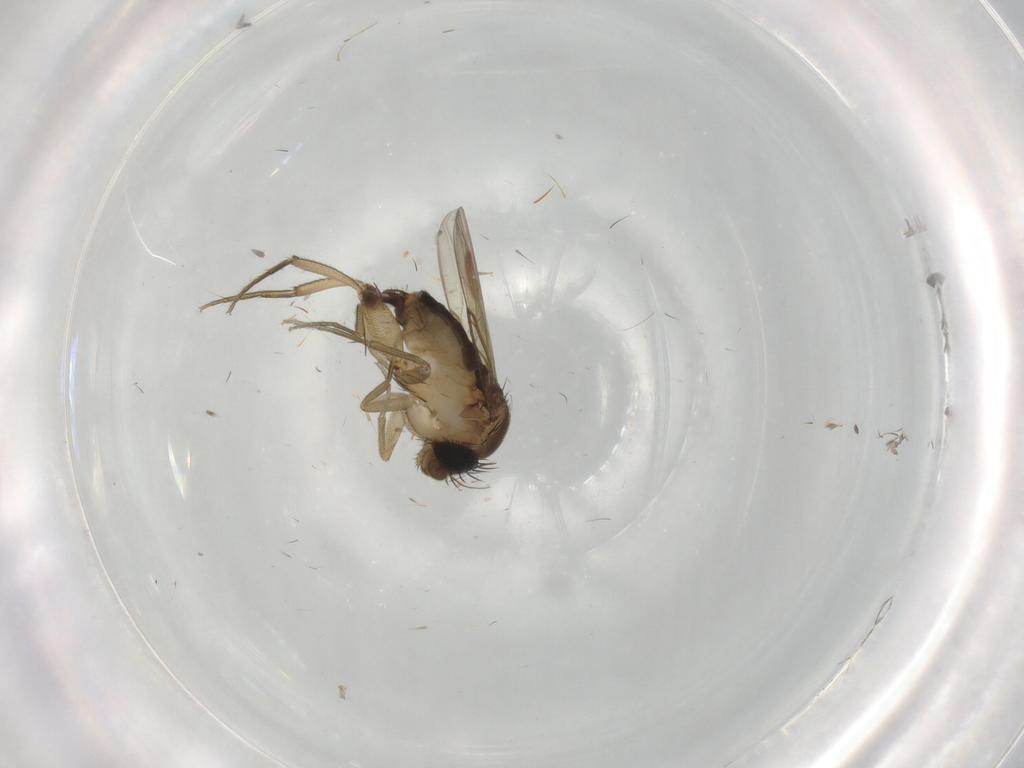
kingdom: Animalia
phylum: Arthropoda
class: Insecta
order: Diptera
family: Phoridae
